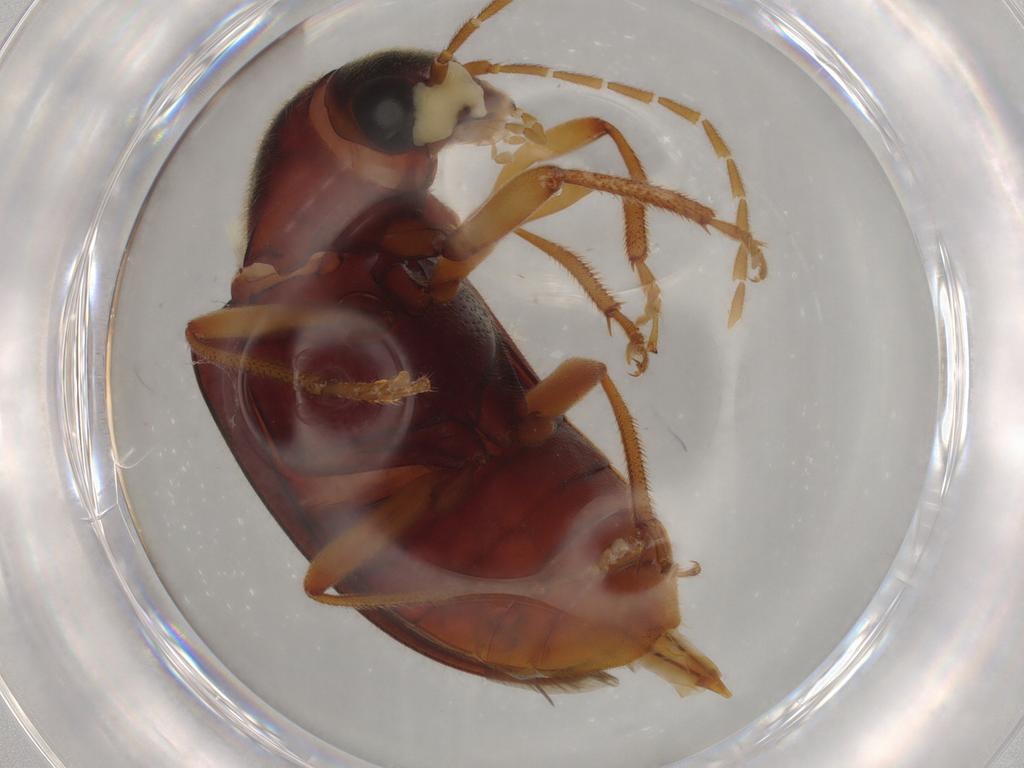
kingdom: Animalia
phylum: Arthropoda
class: Insecta
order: Coleoptera
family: Ptilodactylidae
